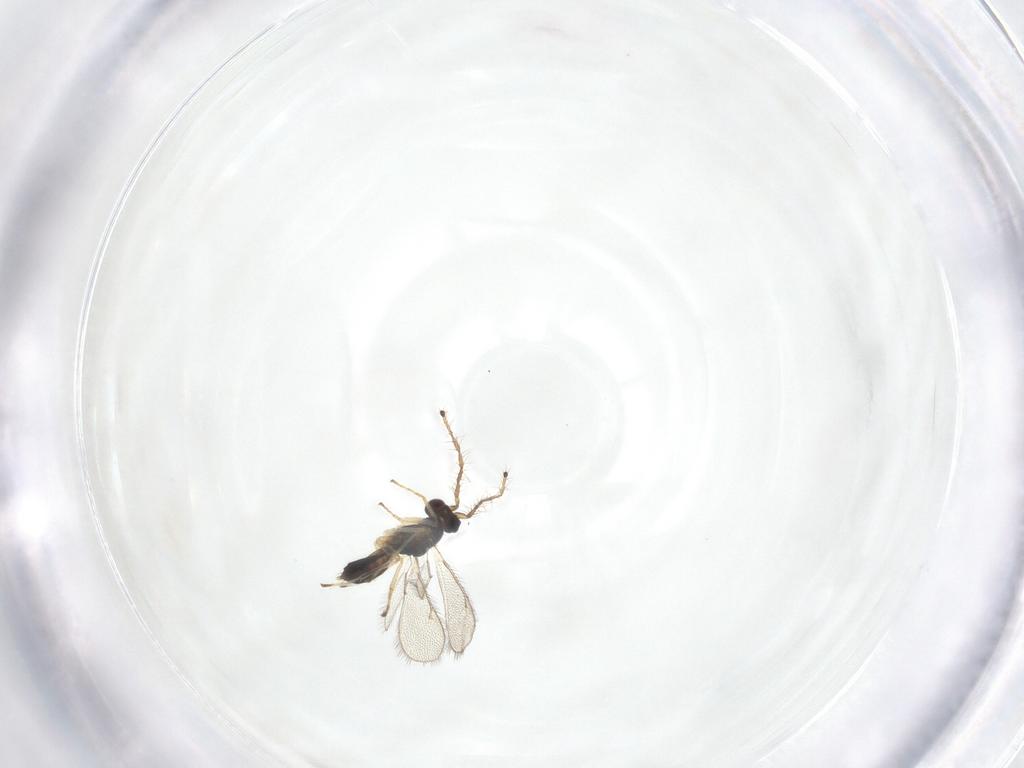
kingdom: Animalia
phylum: Arthropoda
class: Insecta
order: Hymenoptera
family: Eulophidae
